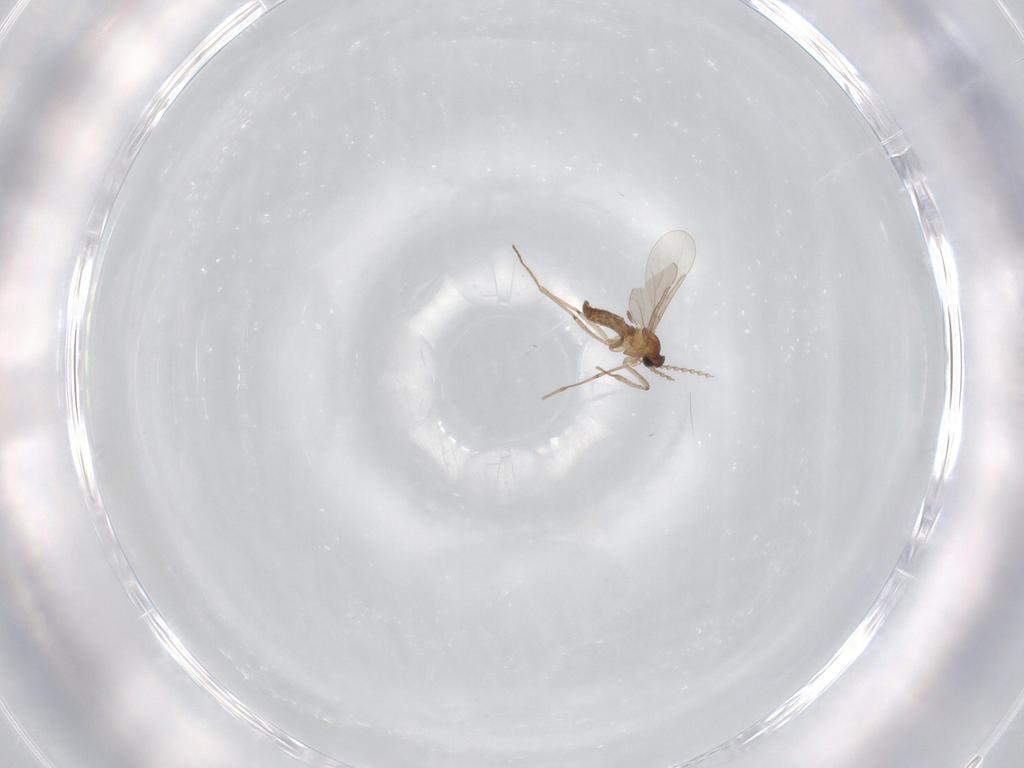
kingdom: Animalia
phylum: Arthropoda
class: Insecta
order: Diptera
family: Cecidomyiidae
